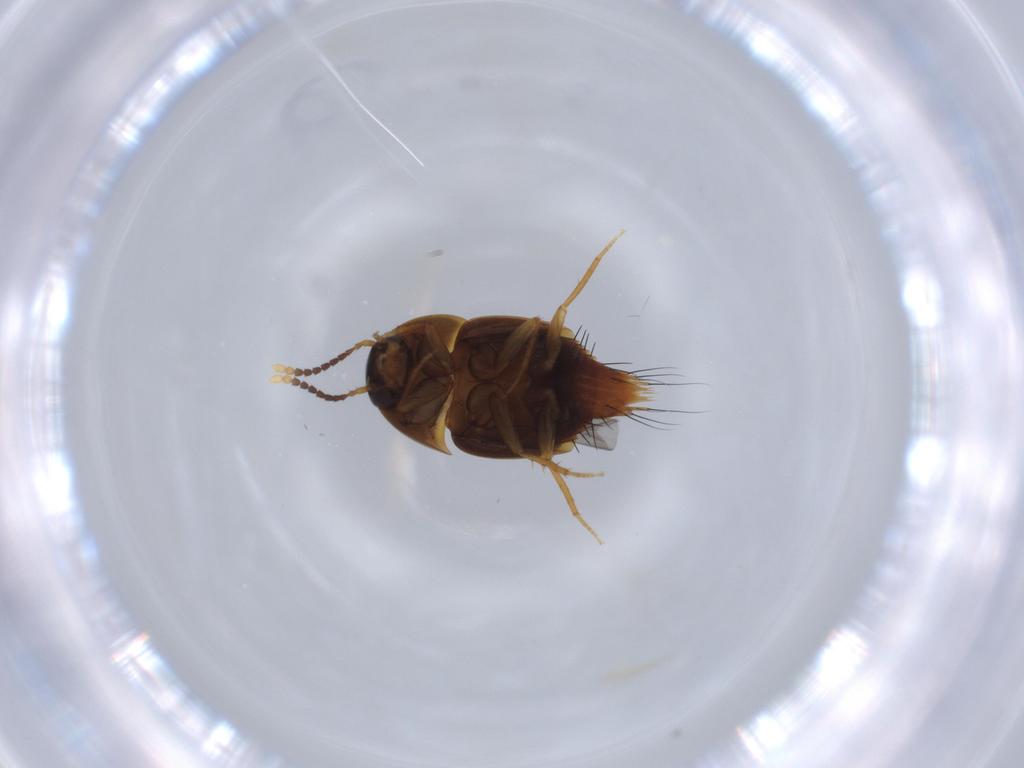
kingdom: Animalia
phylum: Arthropoda
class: Insecta
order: Coleoptera
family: Staphylinidae
